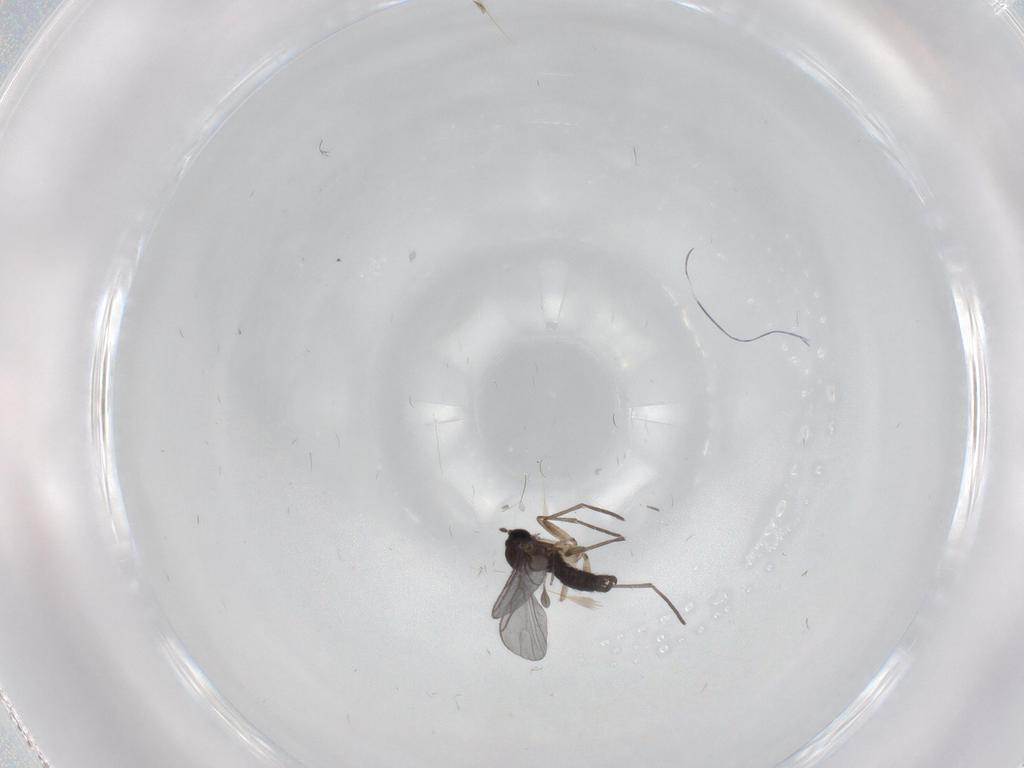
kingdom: Animalia
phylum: Arthropoda
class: Insecta
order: Diptera
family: Sciaridae
